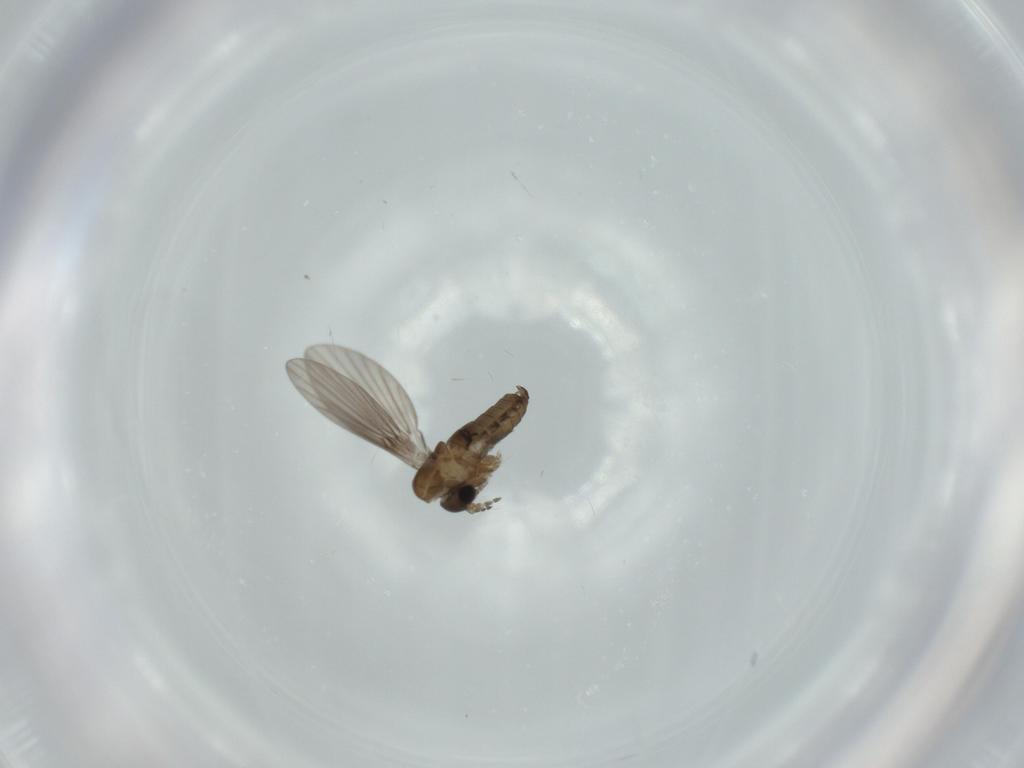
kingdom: Animalia
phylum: Arthropoda
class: Insecta
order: Diptera
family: Psychodidae
